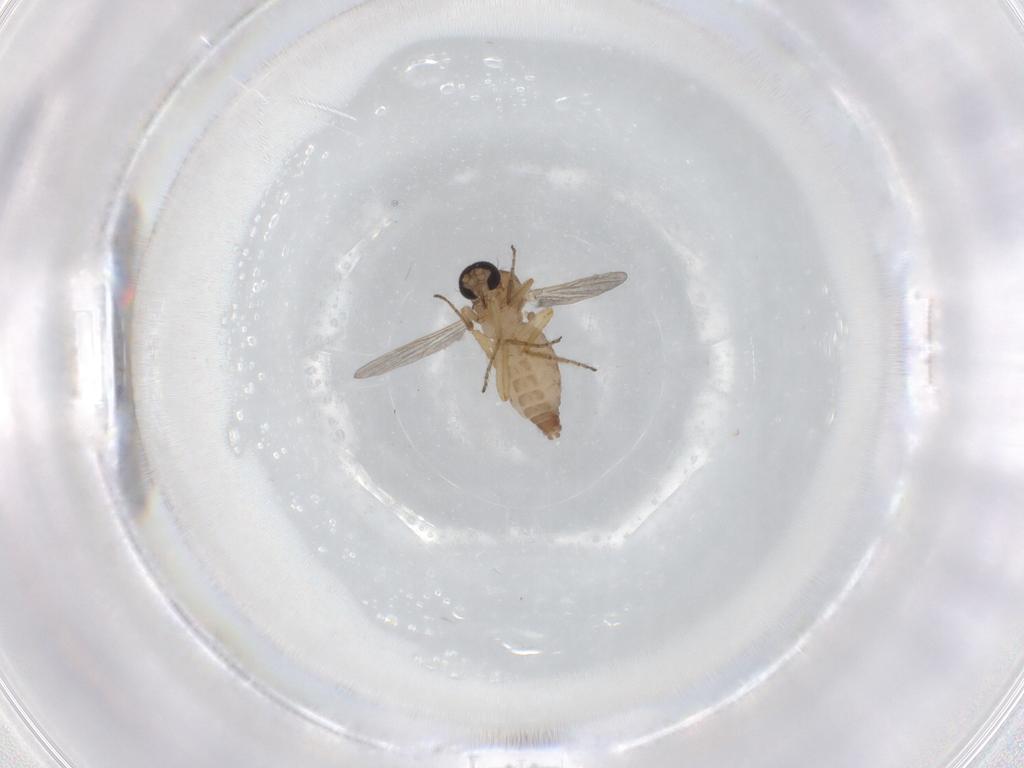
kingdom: Animalia
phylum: Arthropoda
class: Insecta
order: Diptera
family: Ceratopogonidae
